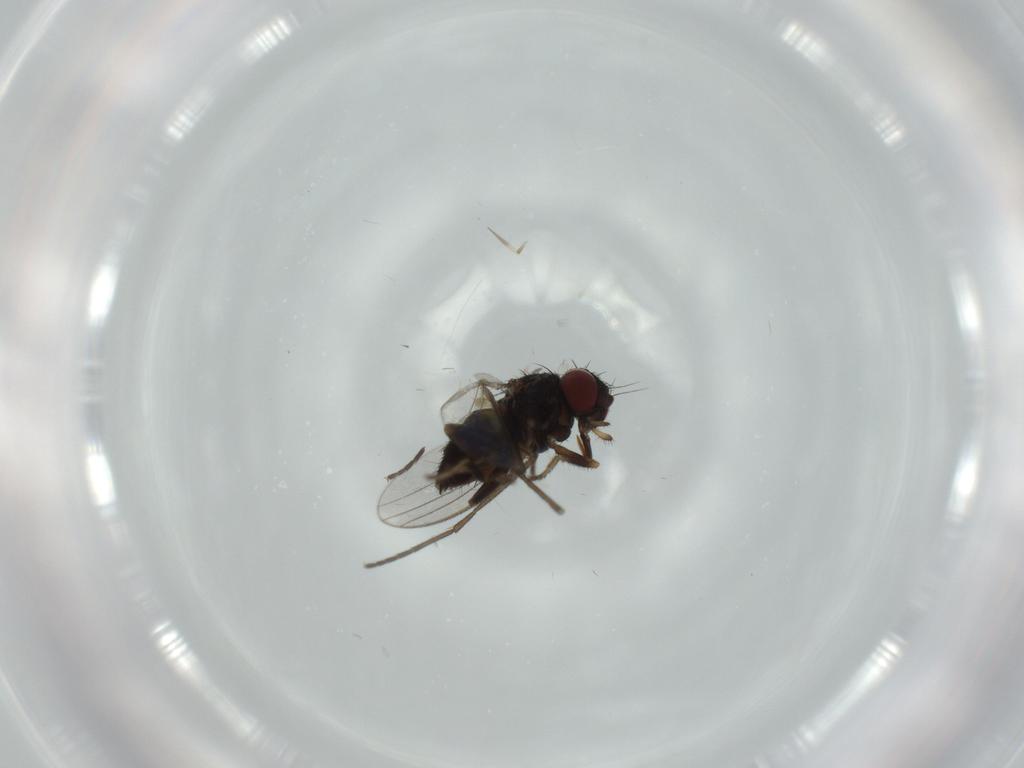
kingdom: Animalia
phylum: Arthropoda
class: Insecta
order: Diptera
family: Milichiidae
